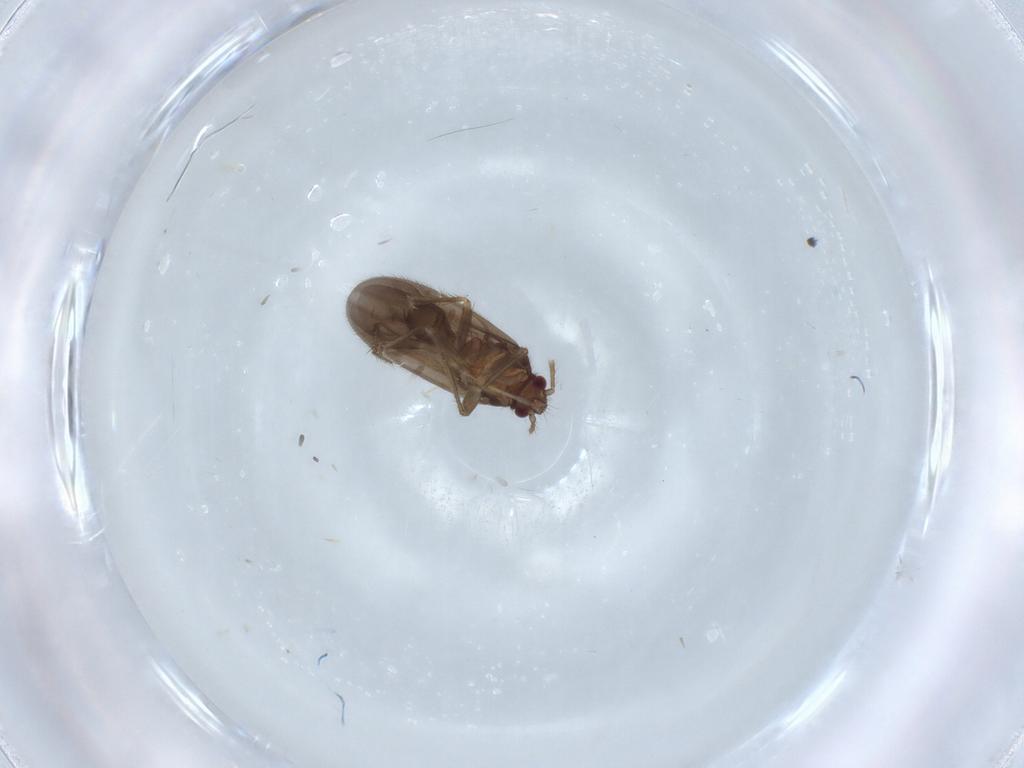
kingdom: Animalia
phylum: Arthropoda
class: Insecta
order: Hemiptera
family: Ceratocombidae
